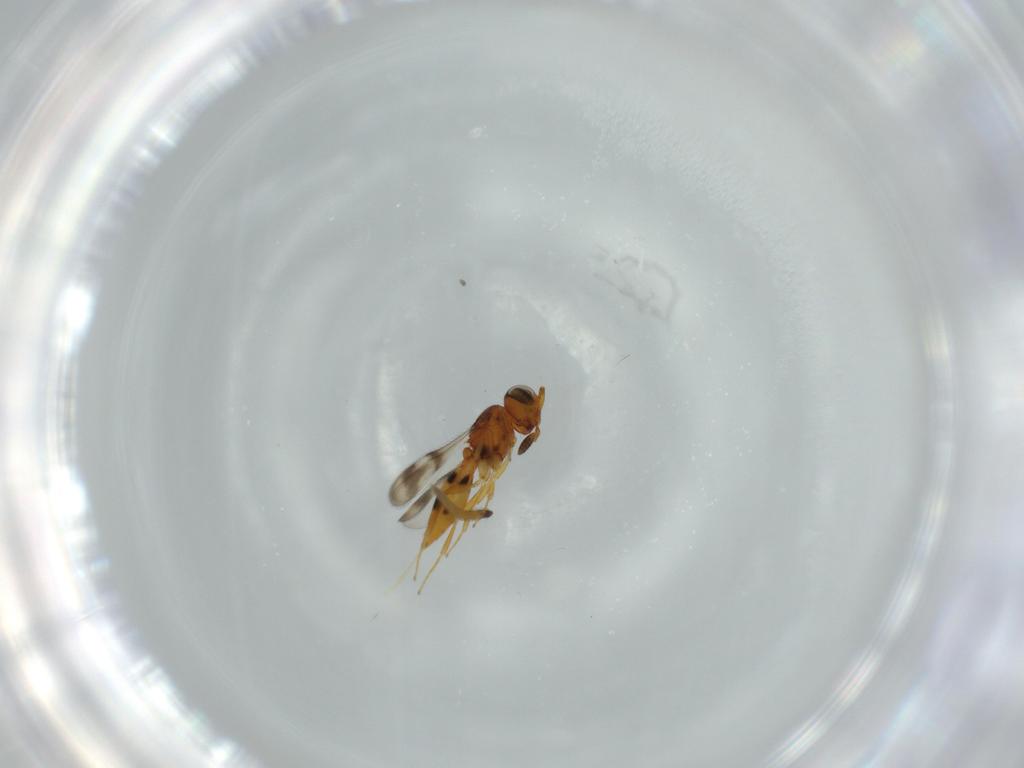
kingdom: Animalia
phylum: Arthropoda
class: Insecta
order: Hymenoptera
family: Scelionidae
